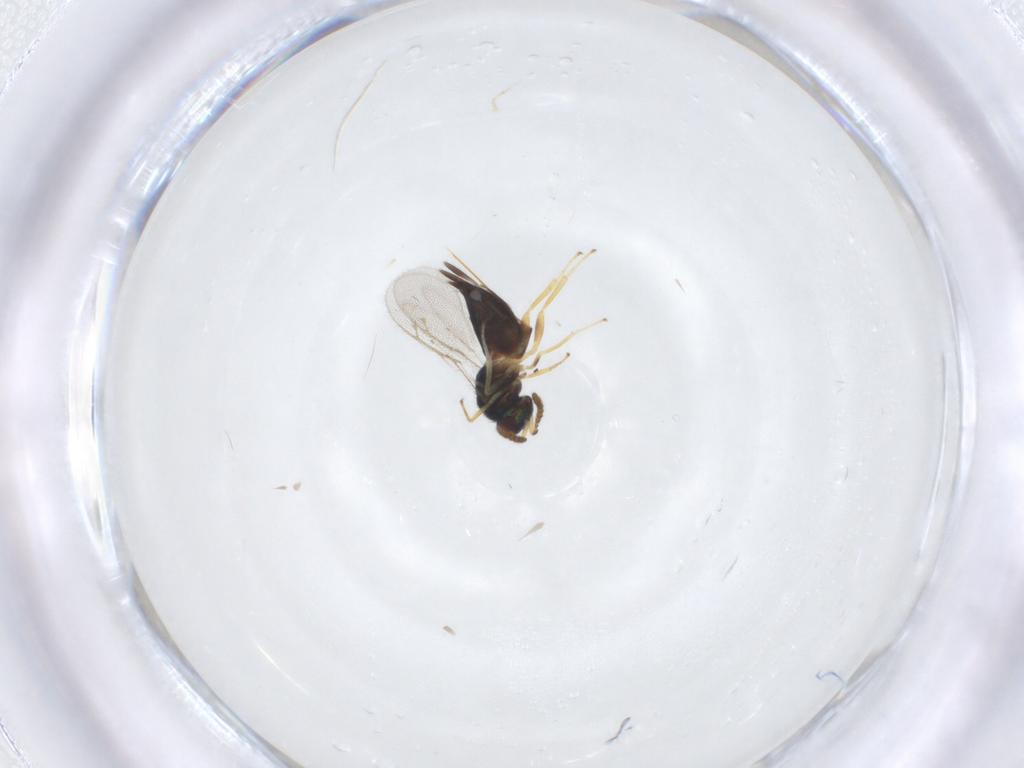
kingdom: Animalia
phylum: Arthropoda
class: Insecta
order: Hymenoptera
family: Pirenidae
